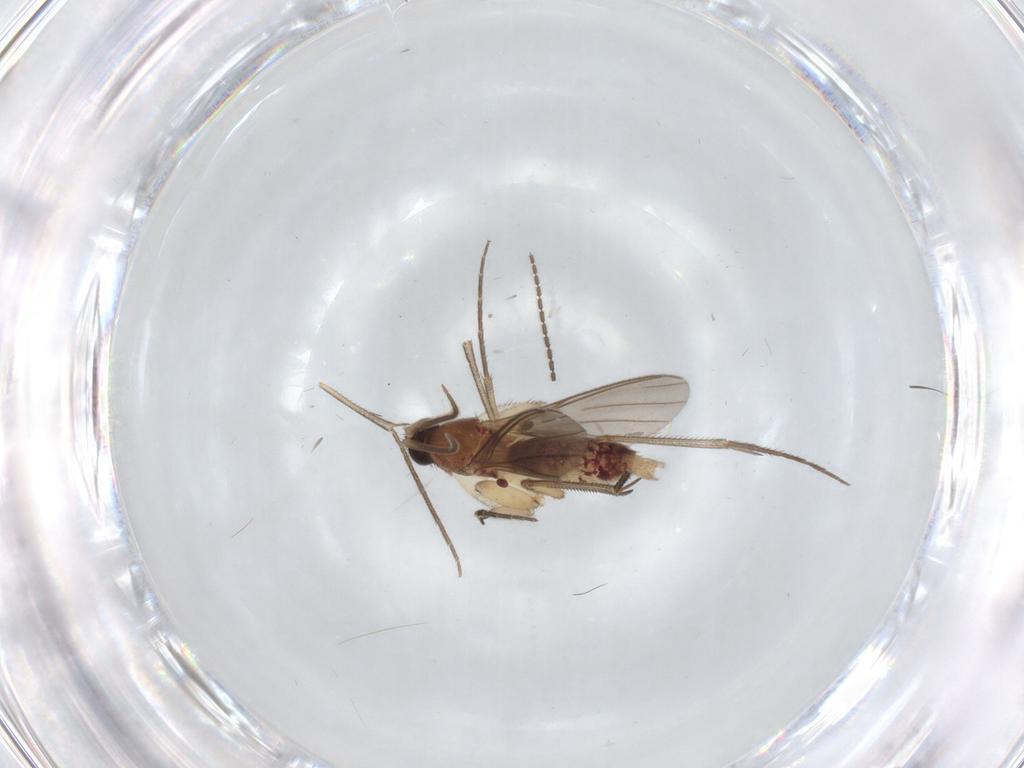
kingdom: Animalia
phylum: Arthropoda
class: Insecta
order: Diptera
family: Mycetophilidae
